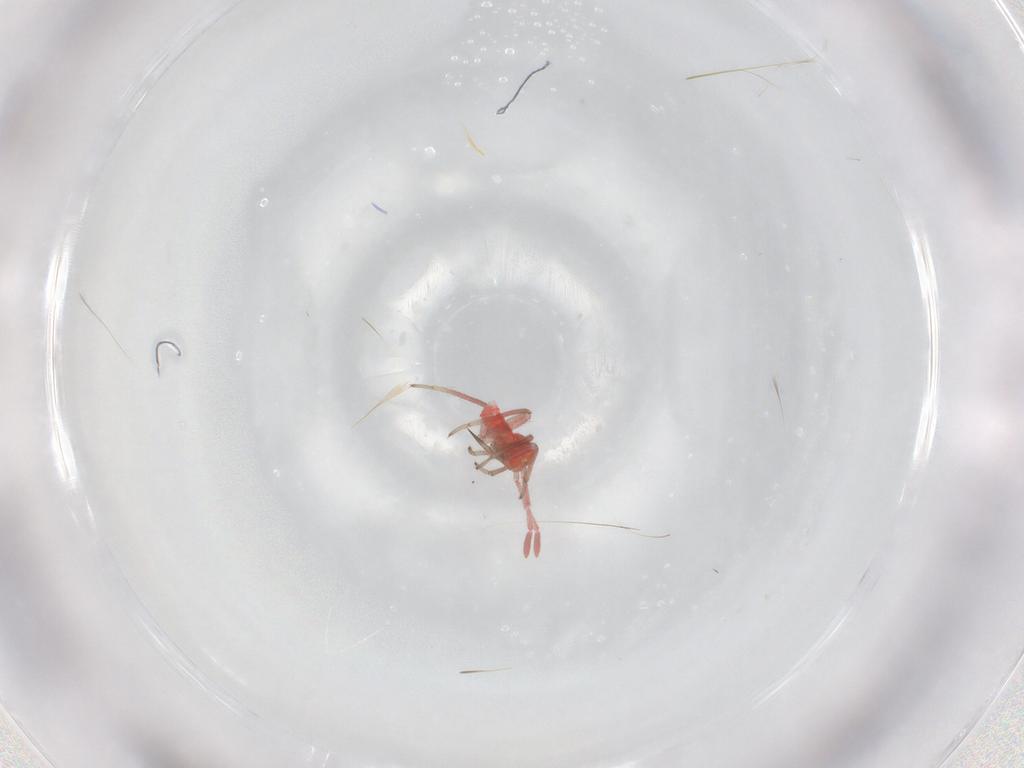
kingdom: Animalia
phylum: Arthropoda
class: Insecta
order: Hemiptera
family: Miridae
